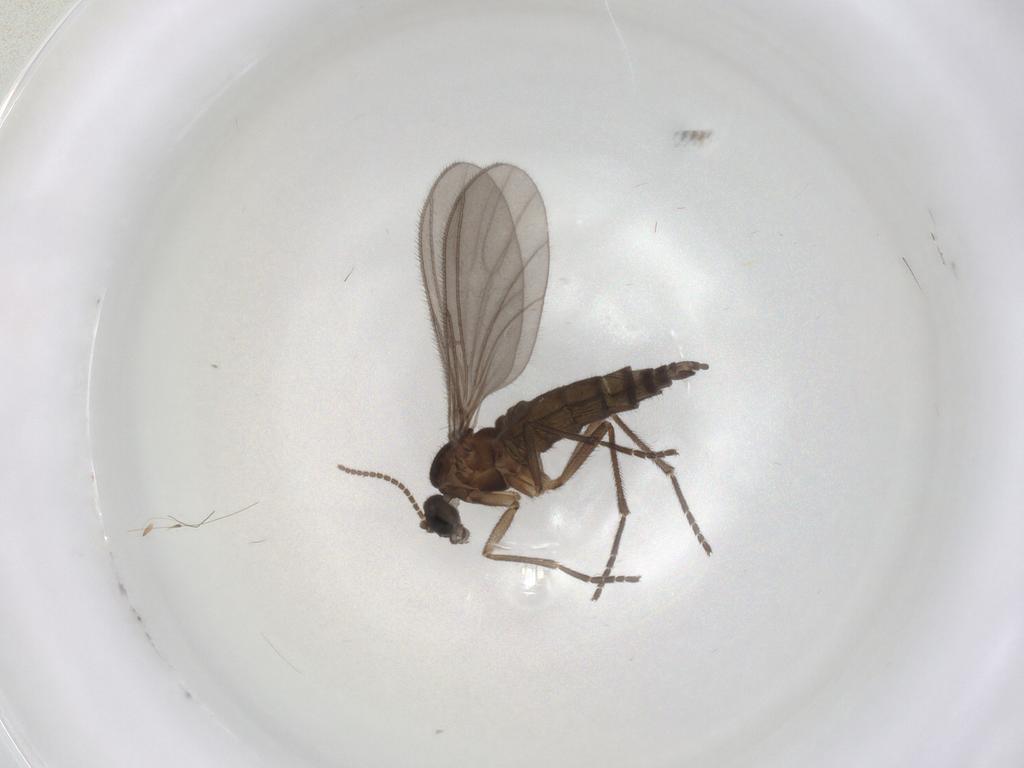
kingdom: Animalia
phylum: Arthropoda
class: Insecta
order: Diptera
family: Sciaridae
